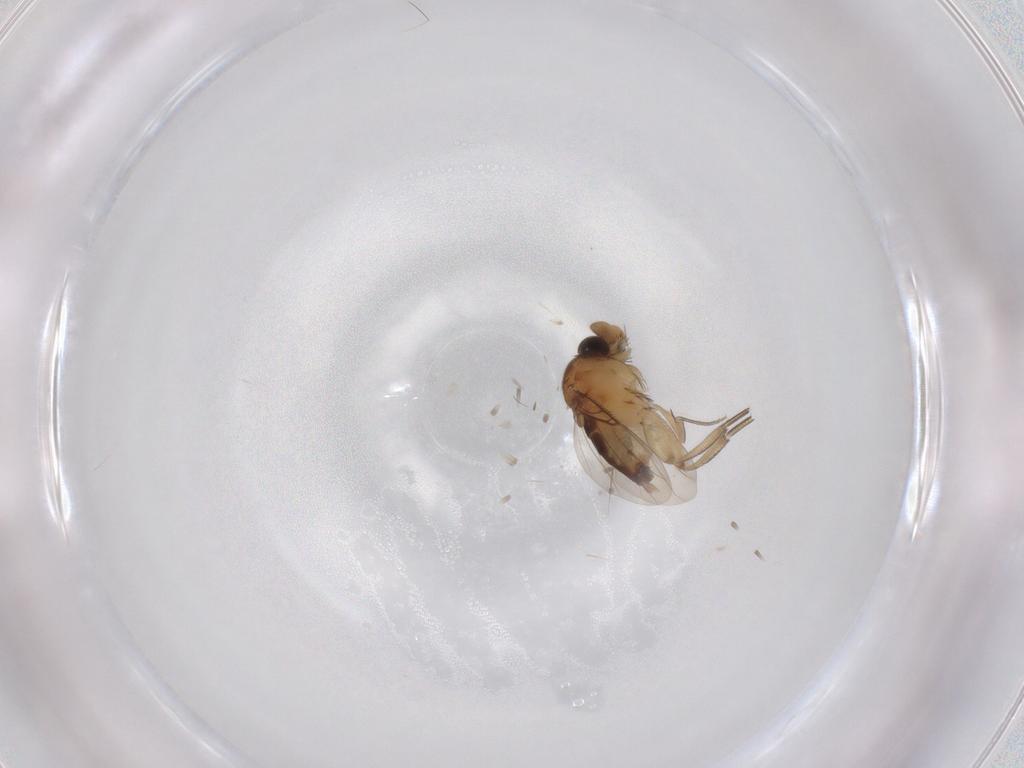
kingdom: Animalia
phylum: Arthropoda
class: Insecta
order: Diptera
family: Phoridae
